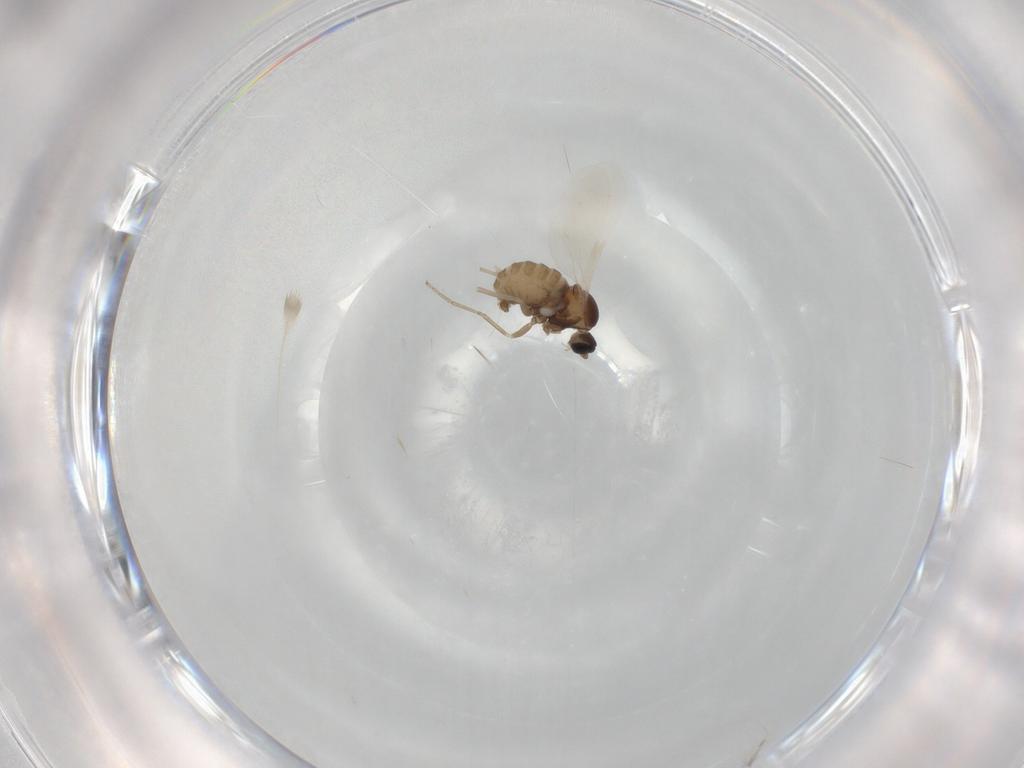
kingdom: Animalia
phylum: Arthropoda
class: Insecta
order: Diptera
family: Cecidomyiidae
